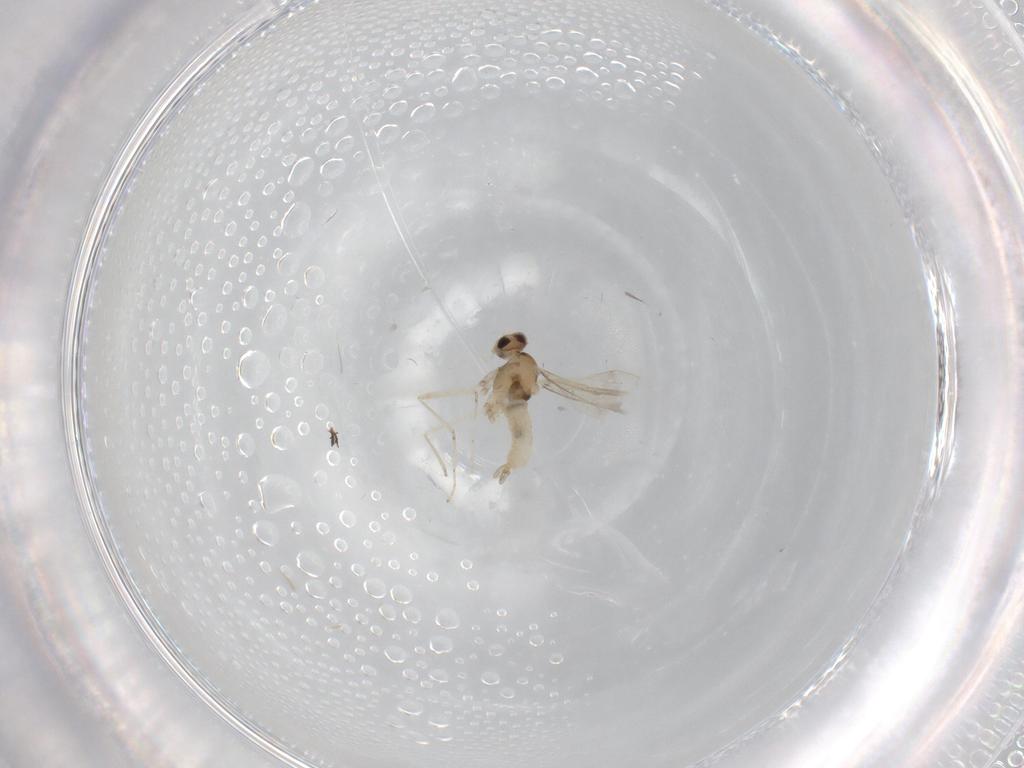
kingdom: Animalia
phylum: Arthropoda
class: Insecta
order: Diptera
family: Cecidomyiidae
